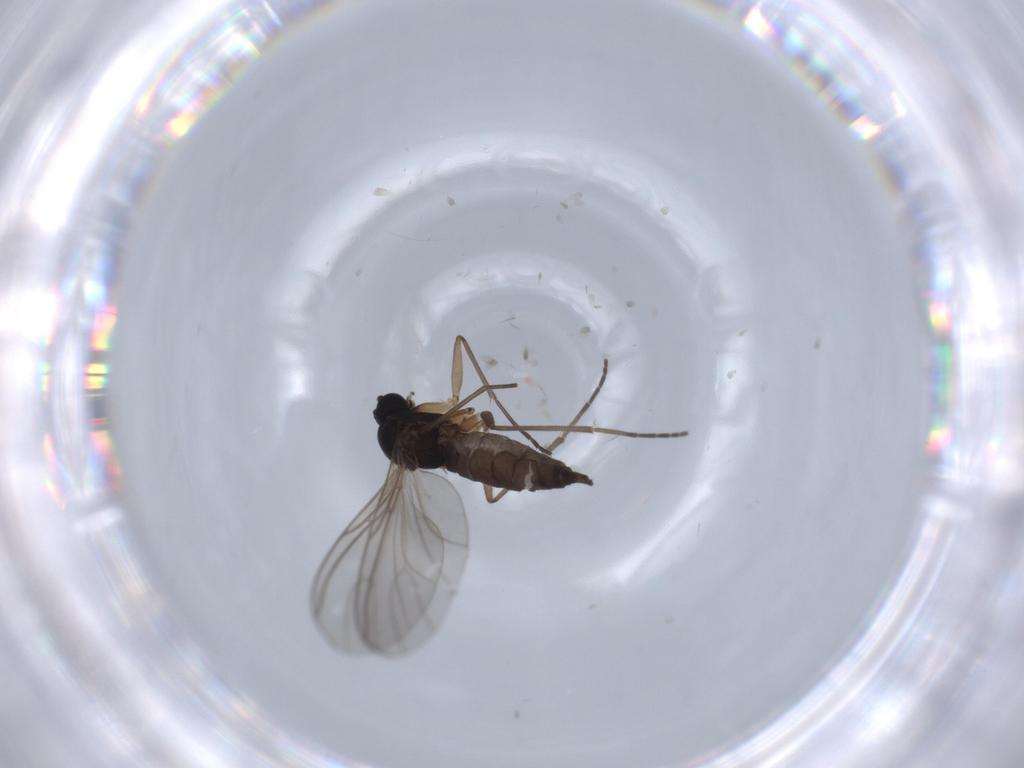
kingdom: Animalia
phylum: Arthropoda
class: Insecta
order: Diptera
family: Sciaridae
